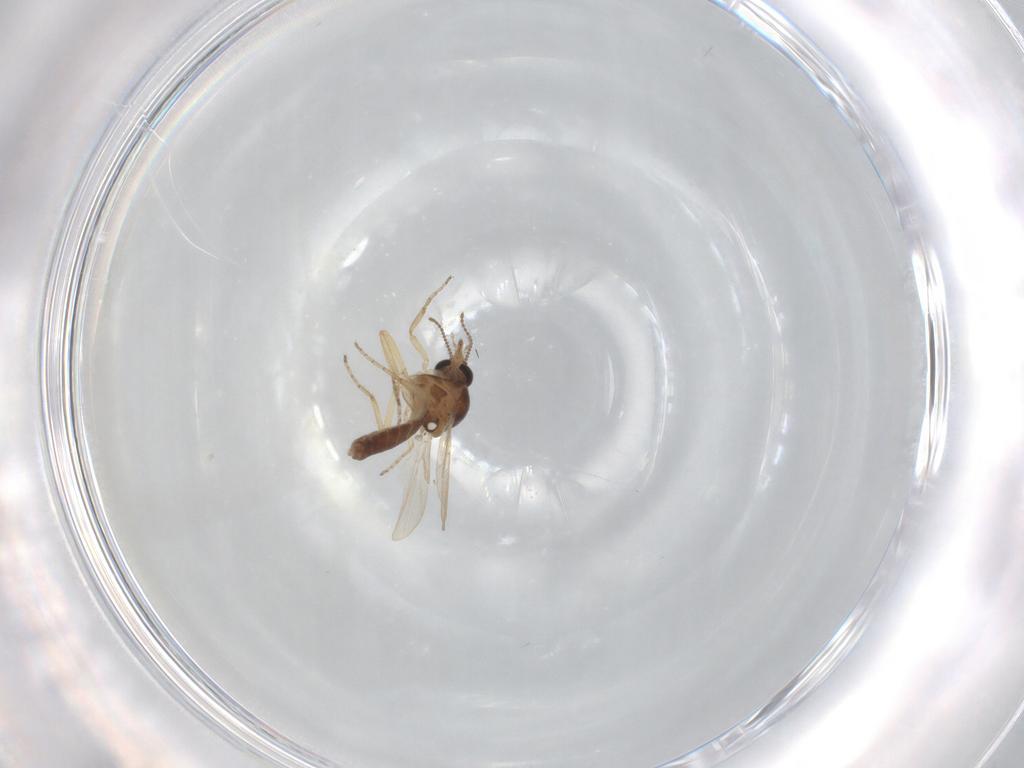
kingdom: Animalia
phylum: Arthropoda
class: Insecta
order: Diptera
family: Ceratopogonidae
